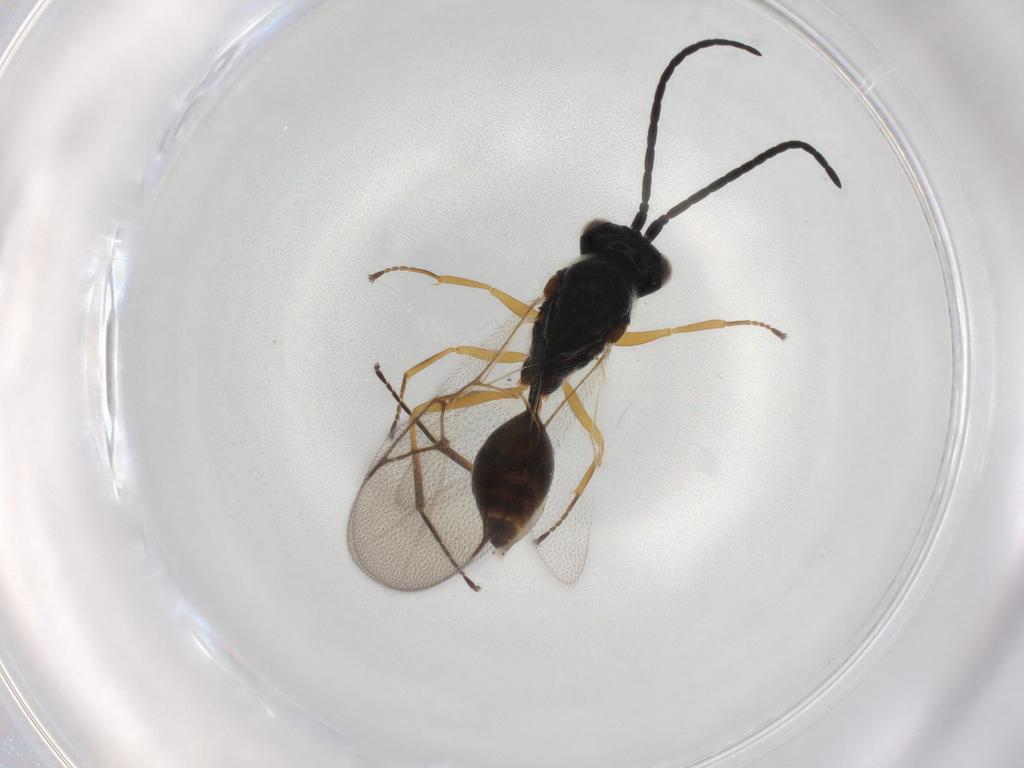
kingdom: Animalia
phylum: Arthropoda
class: Insecta
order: Hymenoptera
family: Figitidae
